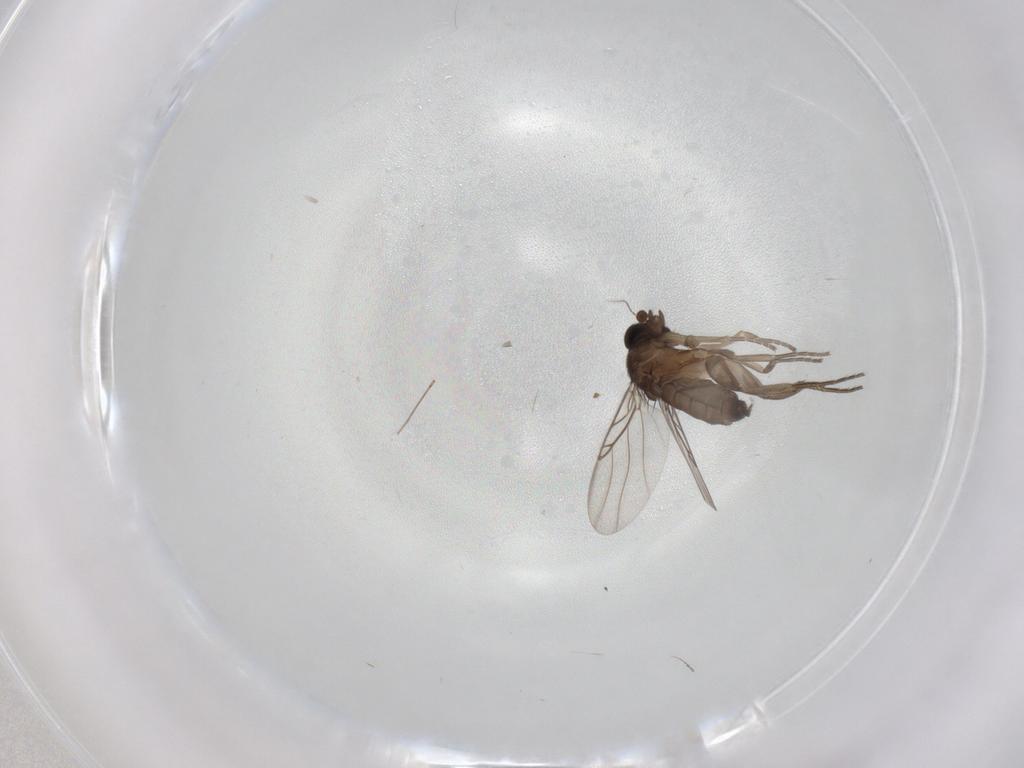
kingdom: Animalia
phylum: Arthropoda
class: Insecta
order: Diptera
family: Phoridae
